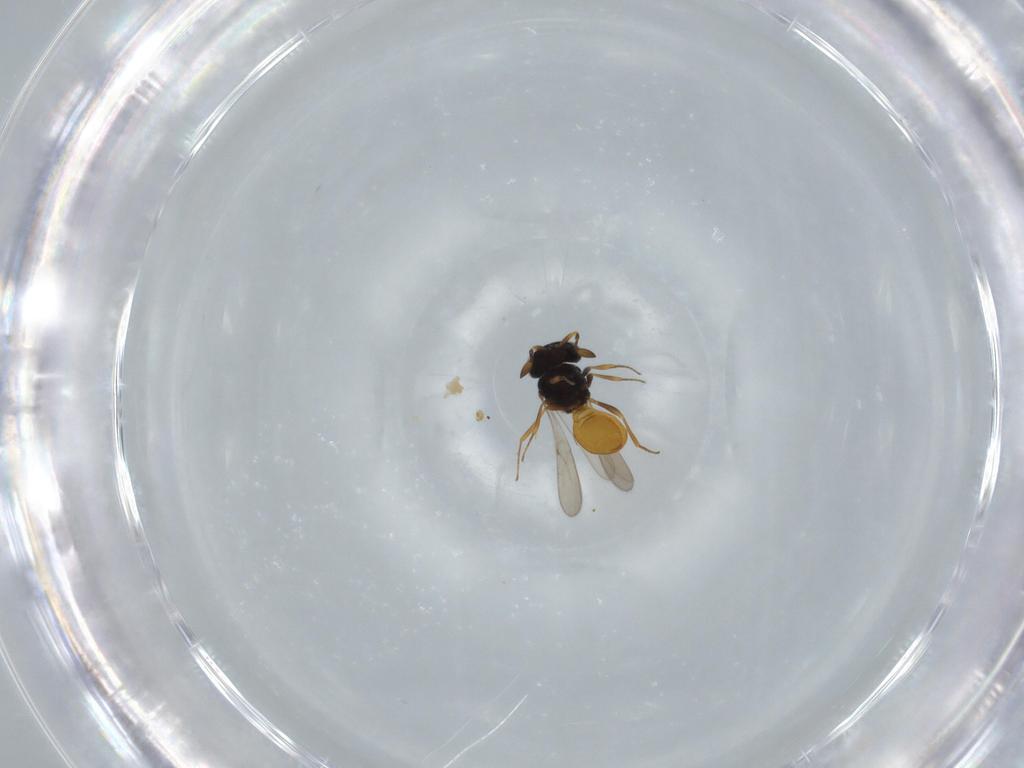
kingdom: Animalia
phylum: Arthropoda
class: Insecta
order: Hymenoptera
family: Scelionidae
